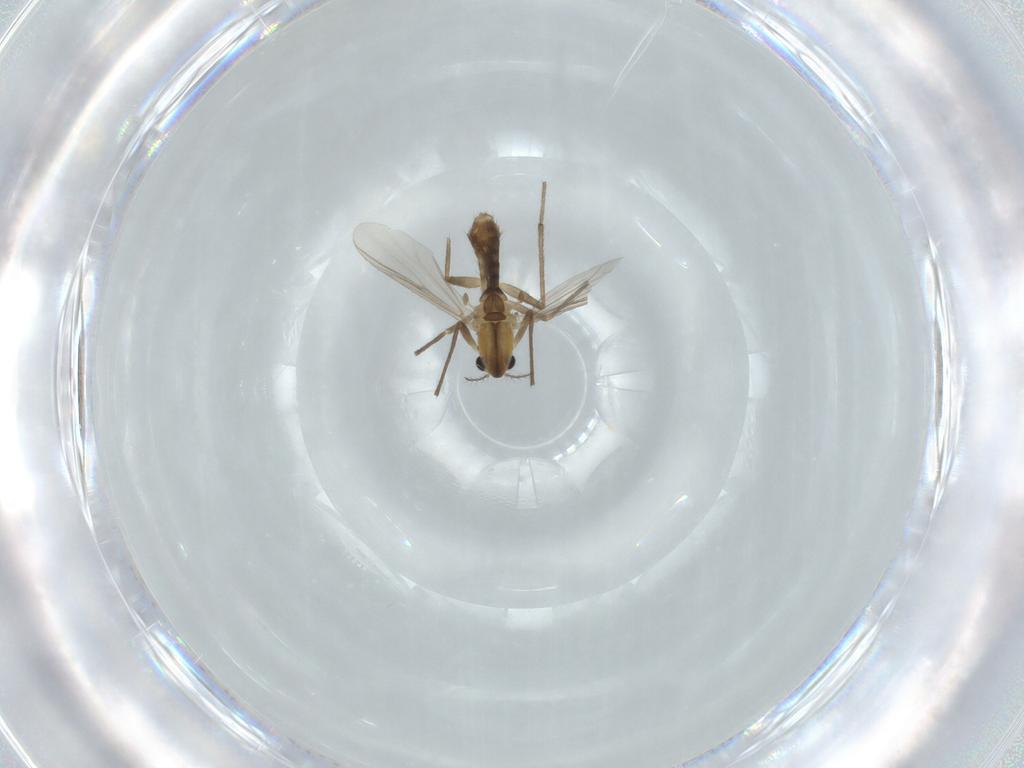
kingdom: Animalia
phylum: Arthropoda
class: Insecta
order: Diptera
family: Chironomidae
